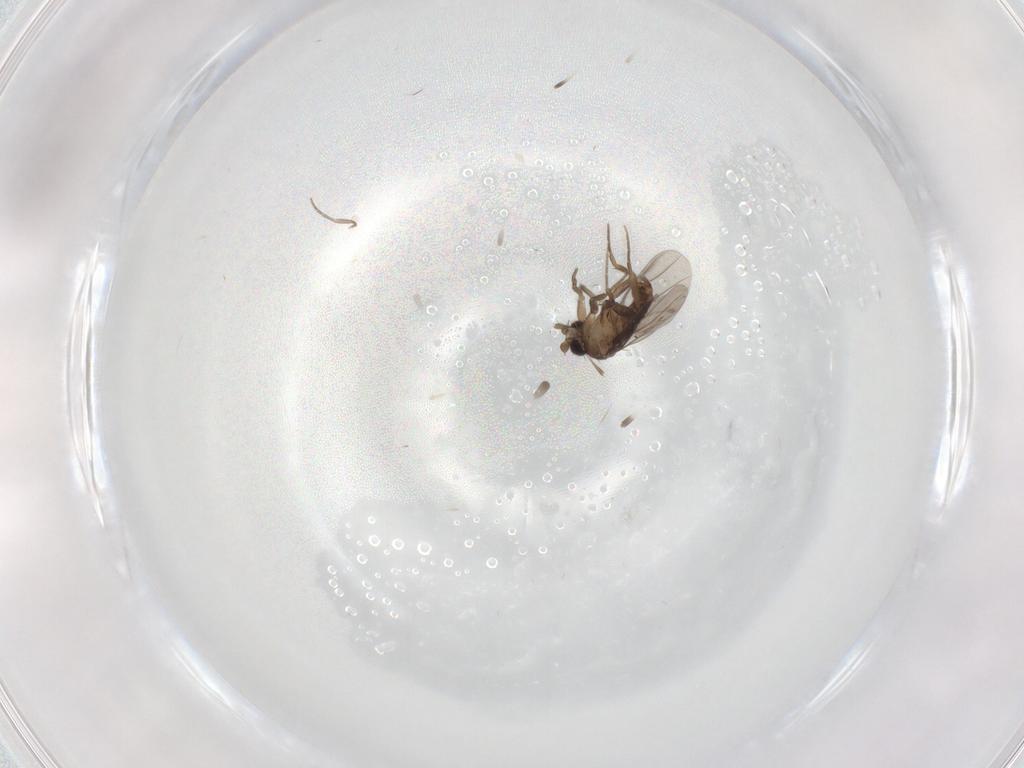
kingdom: Animalia
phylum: Arthropoda
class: Insecta
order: Diptera
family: Phoridae
